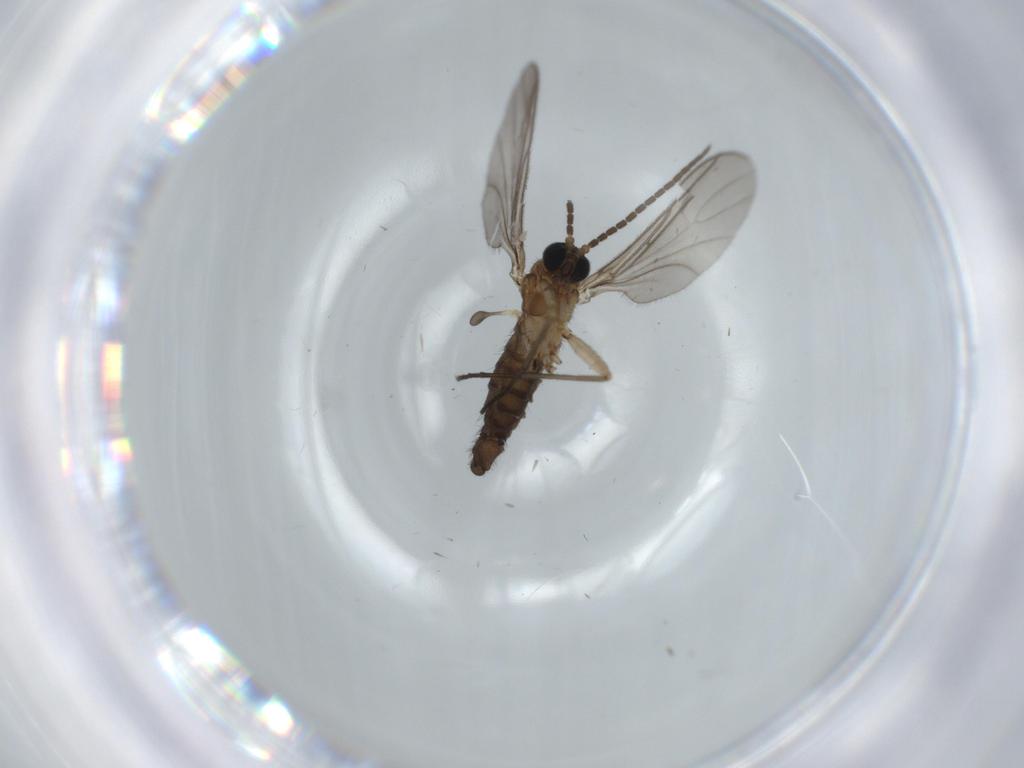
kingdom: Animalia
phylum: Arthropoda
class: Insecta
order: Diptera
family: Sciaridae
